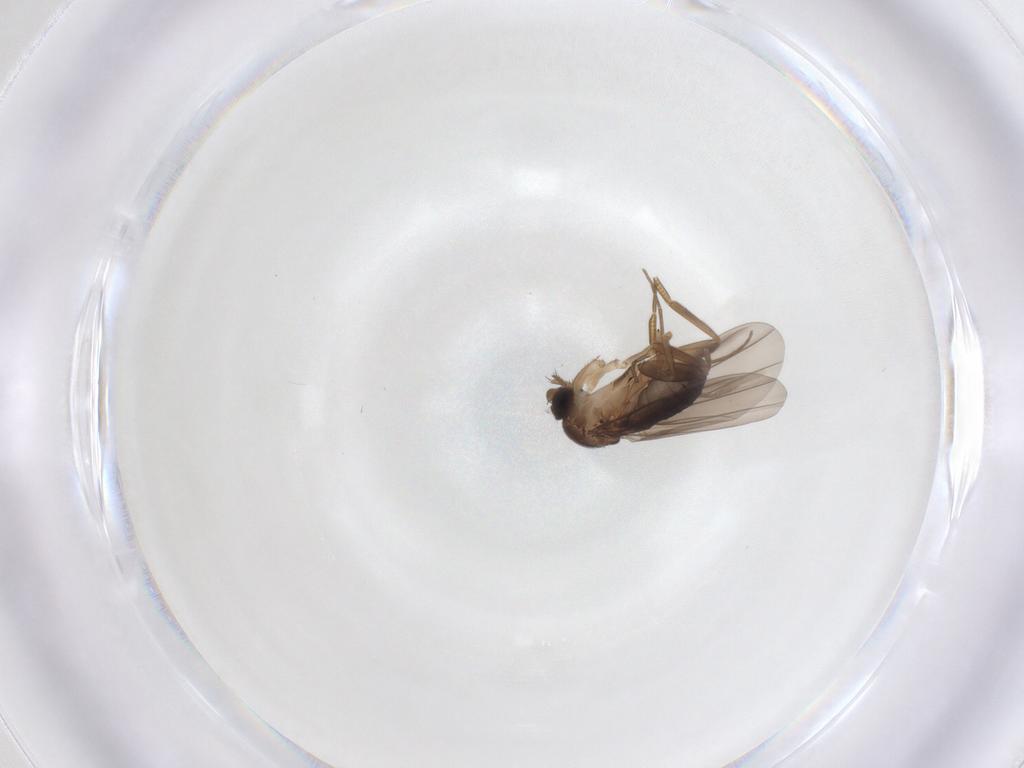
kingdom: Animalia
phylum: Arthropoda
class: Insecta
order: Diptera
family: Chironomidae
